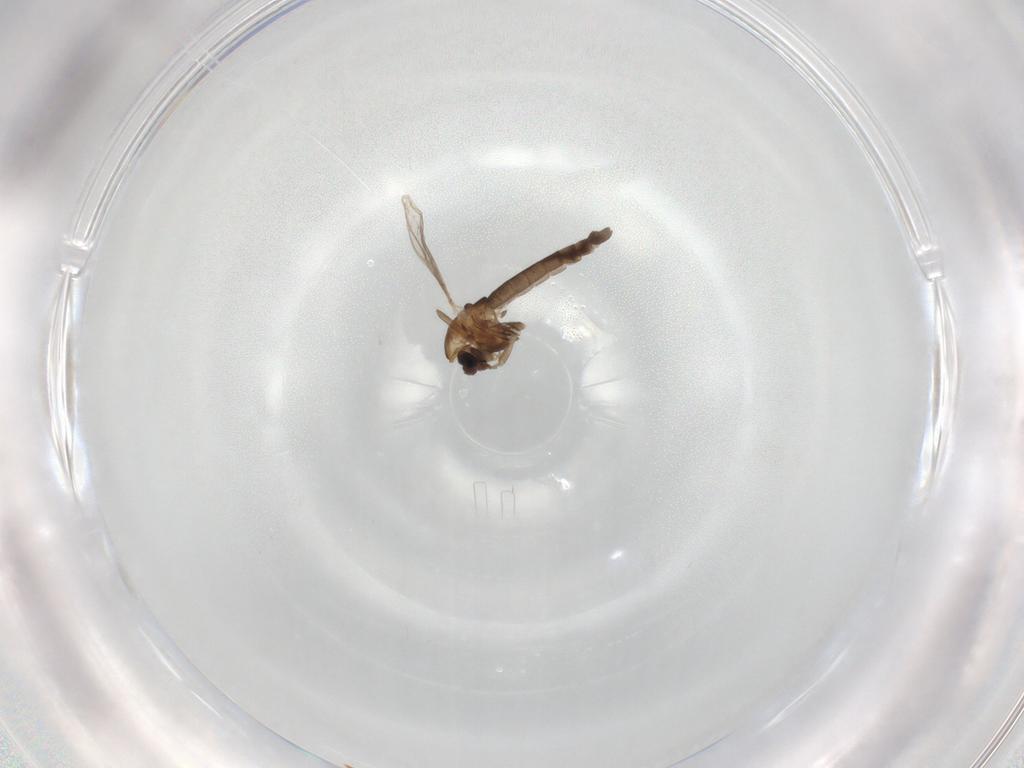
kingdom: Animalia
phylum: Arthropoda
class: Insecta
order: Diptera
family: Chironomidae
